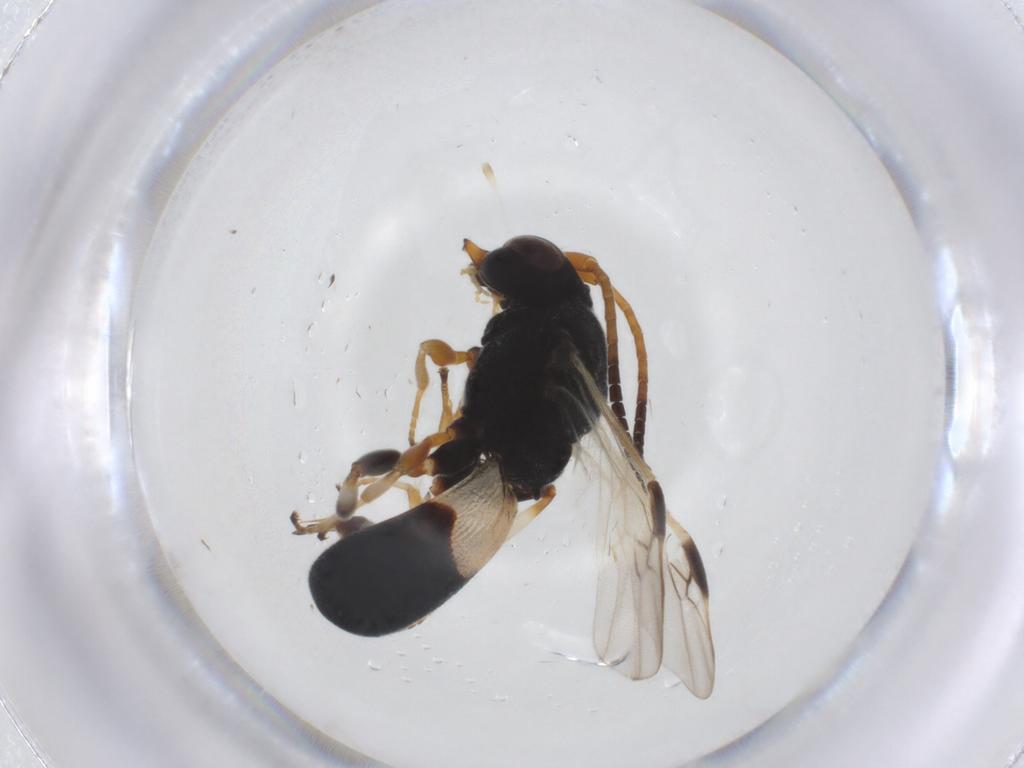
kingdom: Animalia
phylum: Arthropoda
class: Insecta
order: Hymenoptera
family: Braconidae
